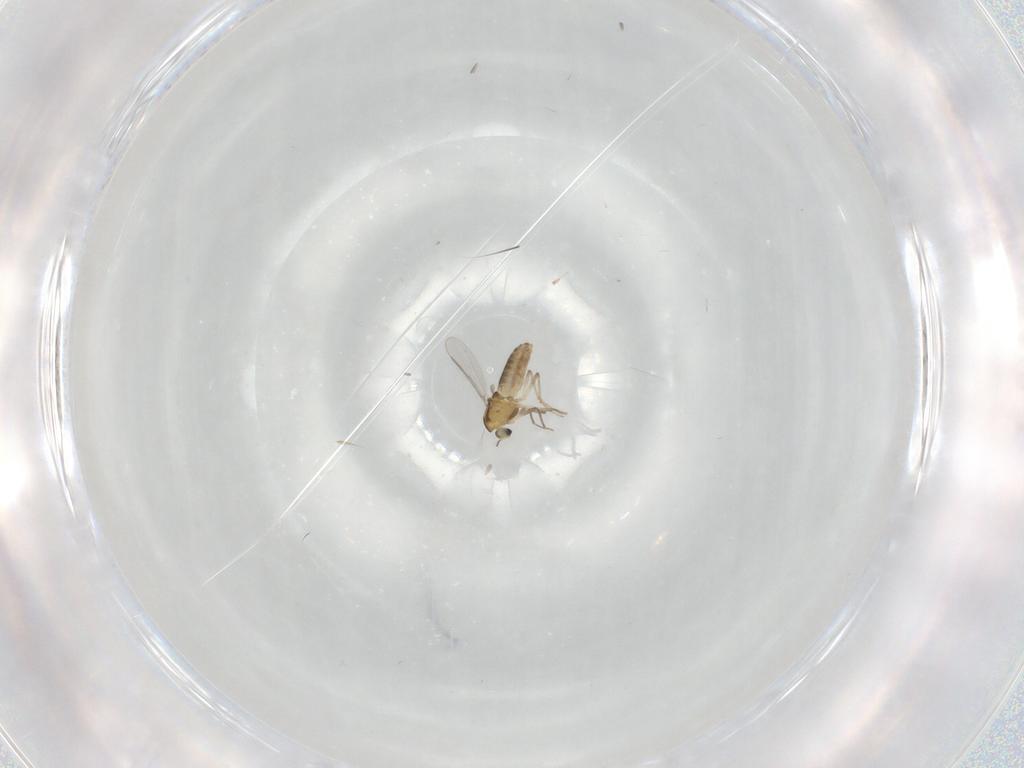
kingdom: Animalia
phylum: Arthropoda
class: Insecta
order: Diptera
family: Chironomidae
